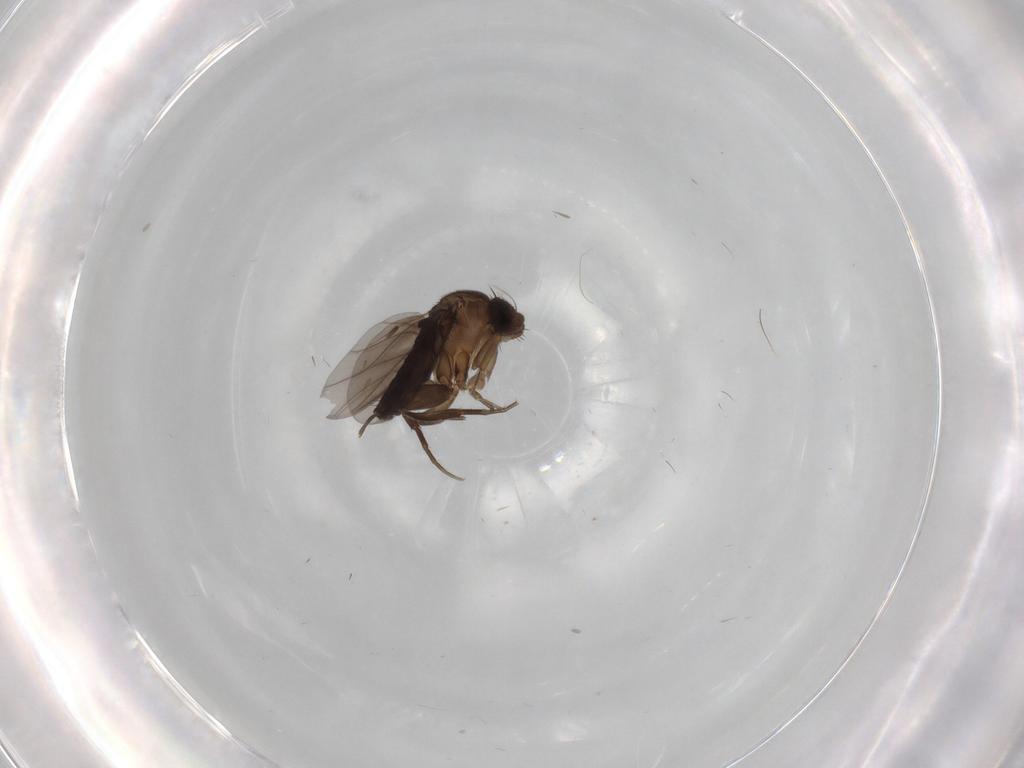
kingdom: Animalia
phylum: Arthropoda
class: Insecta
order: Diptera
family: Phoridae
